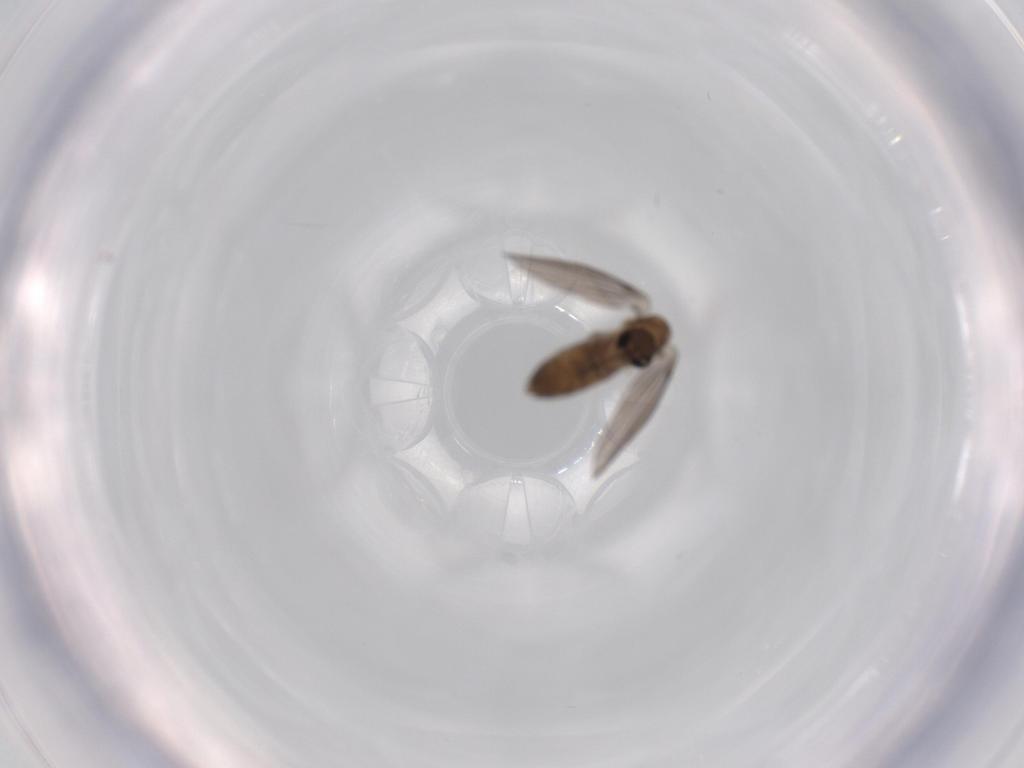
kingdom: Animalia
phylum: Arthropoda
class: Insecta
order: Diptera
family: Psychodidae
